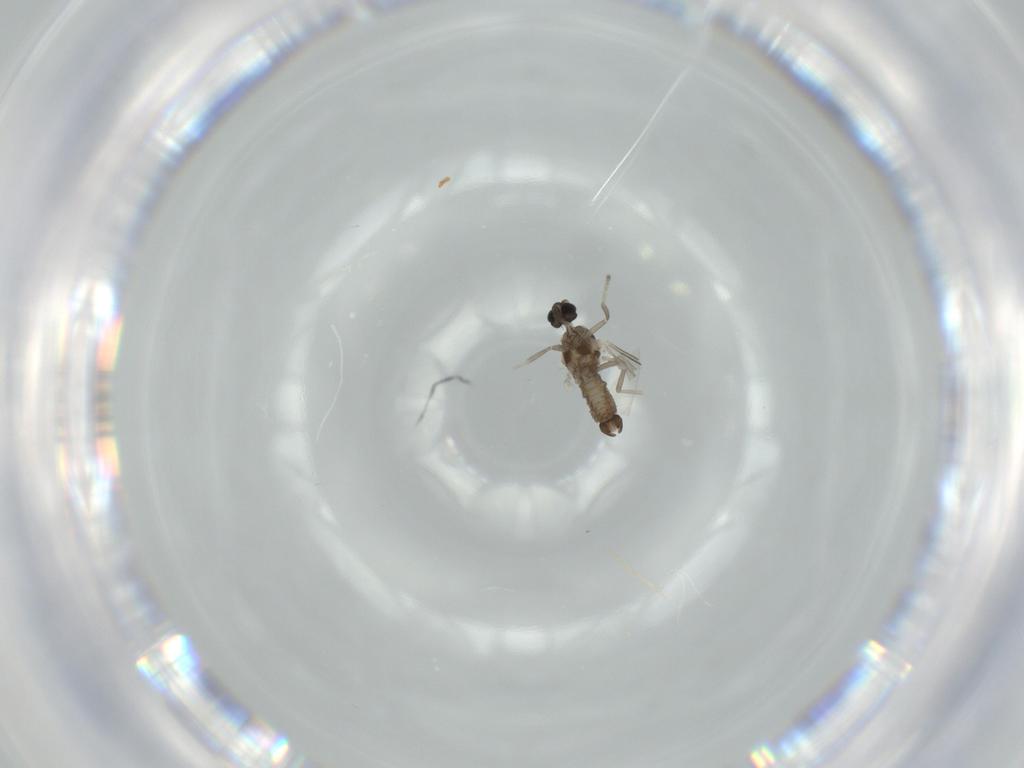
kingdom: Animalia
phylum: Arthropoda
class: Insecta
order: Diptera
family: Cecidomyiidae
